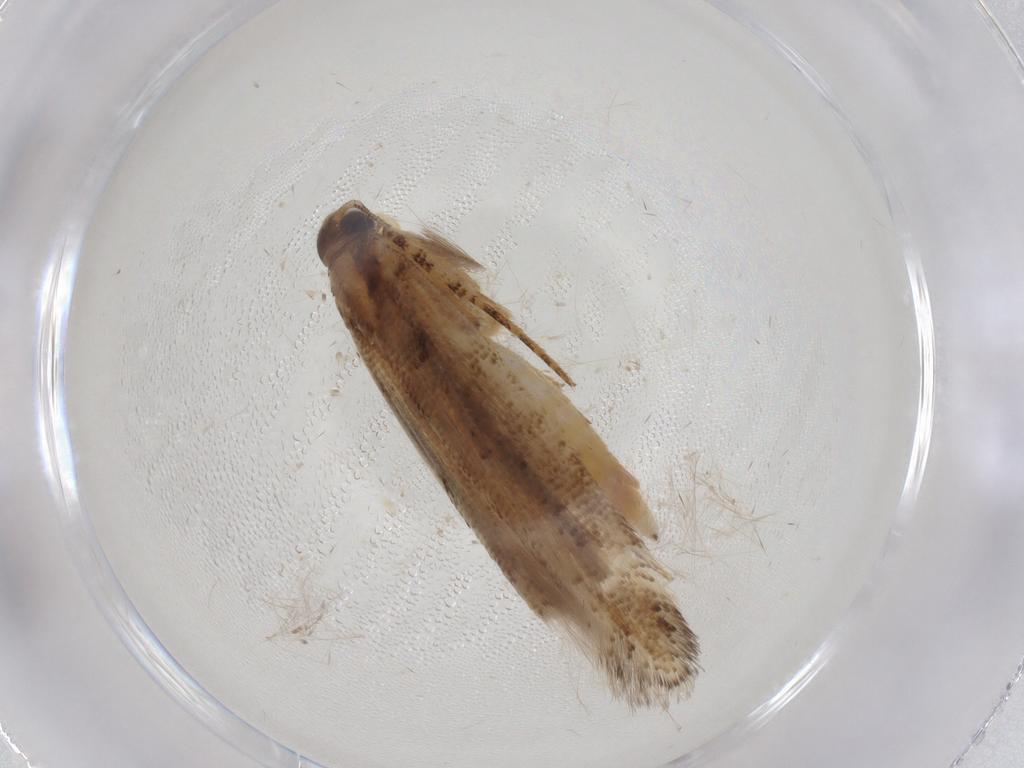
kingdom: Animalia
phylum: Arthropoda
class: Insecta
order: Lepidoptera
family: Gelechiidae
